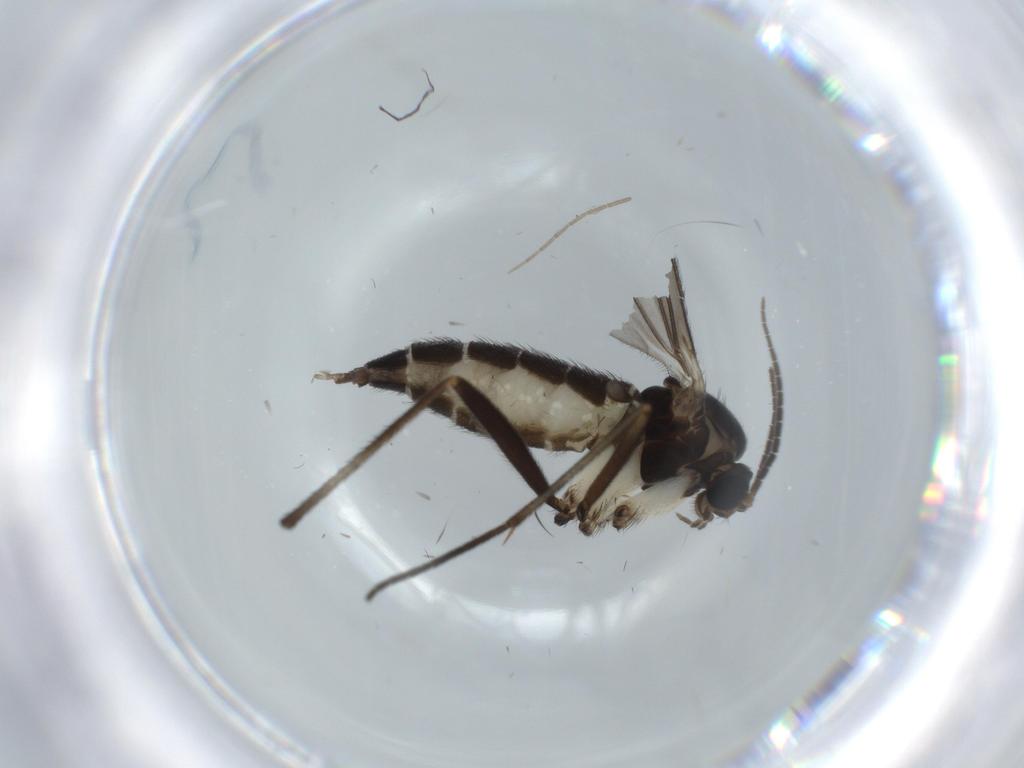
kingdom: Animalia
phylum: Arthropoda
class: Insecta
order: Diptera
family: Sciaridae
